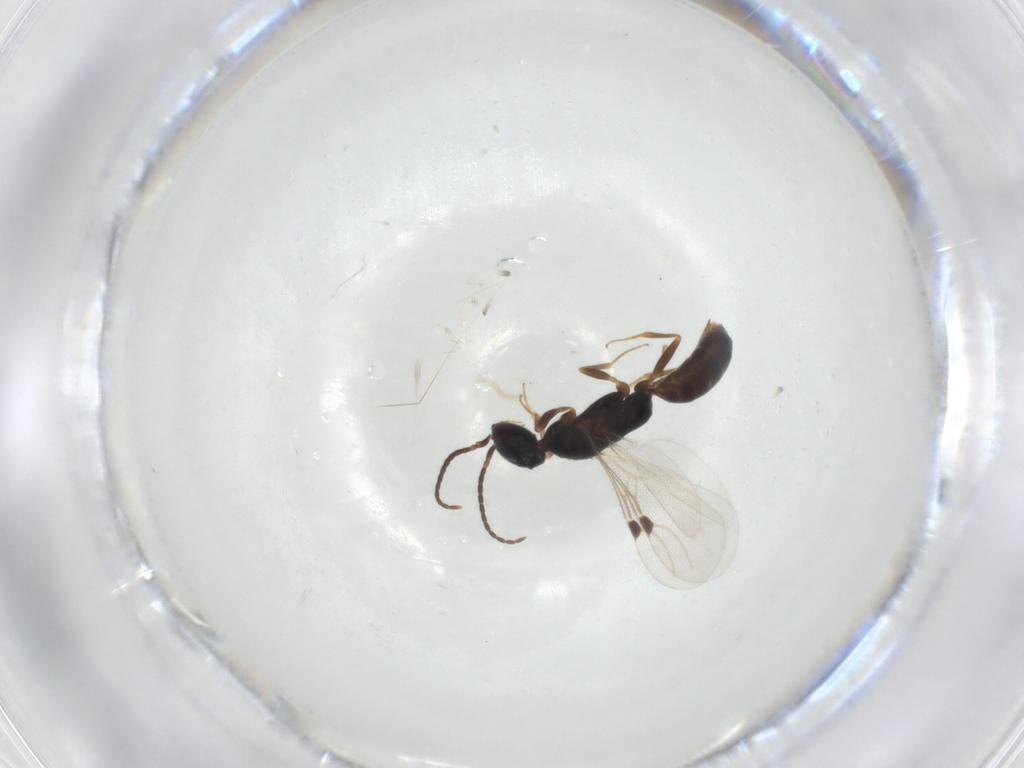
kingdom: Animalia
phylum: Arthropoda
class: Insecta
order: Hymenoptera
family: Bethylidae
